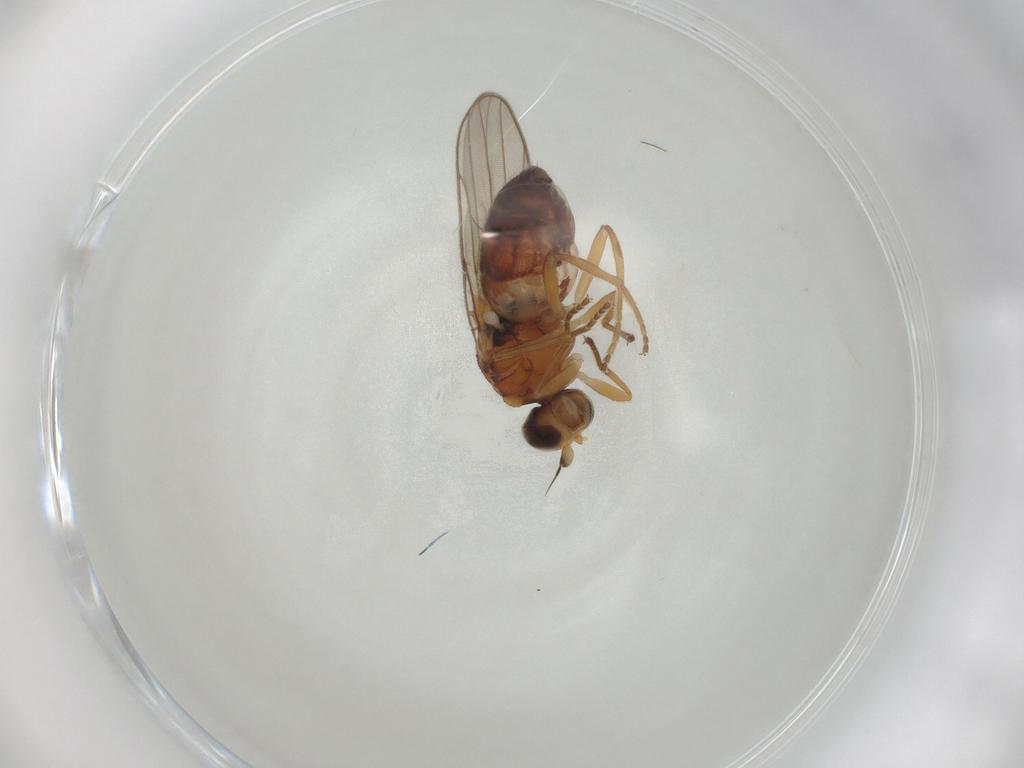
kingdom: Animalia
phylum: Arthropoda
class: Insecta
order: Diptera
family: Chloropidae
